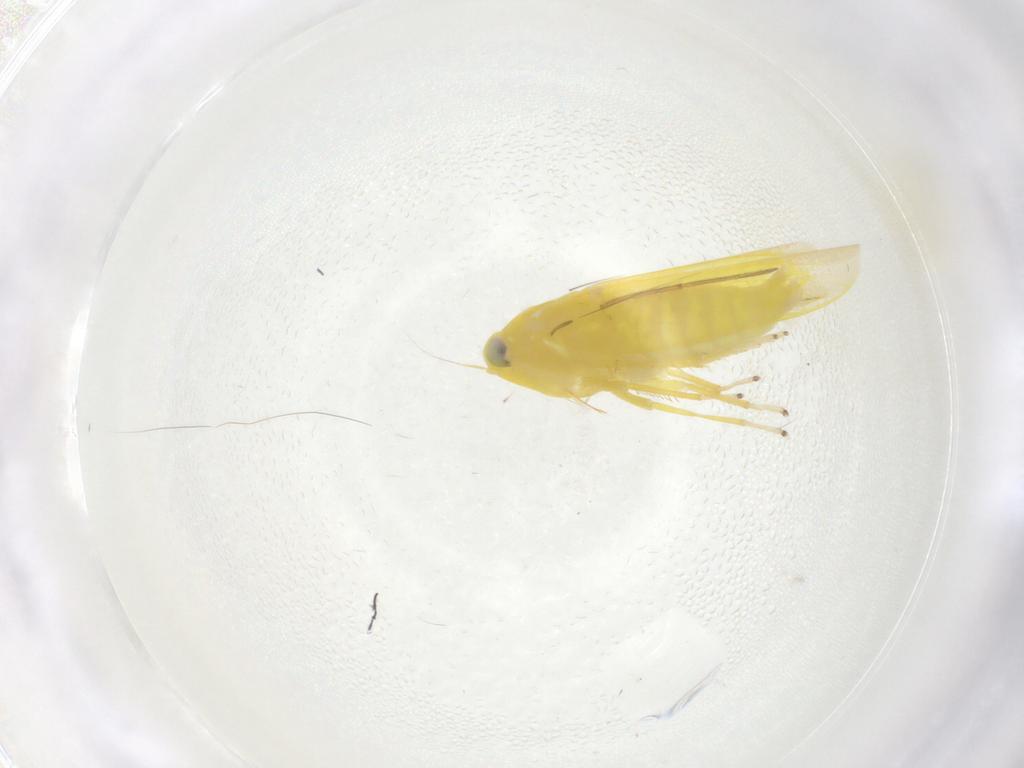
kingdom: Animalia
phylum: Arthropoda
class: Insecta
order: Hemiptera
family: Cicadellidae
